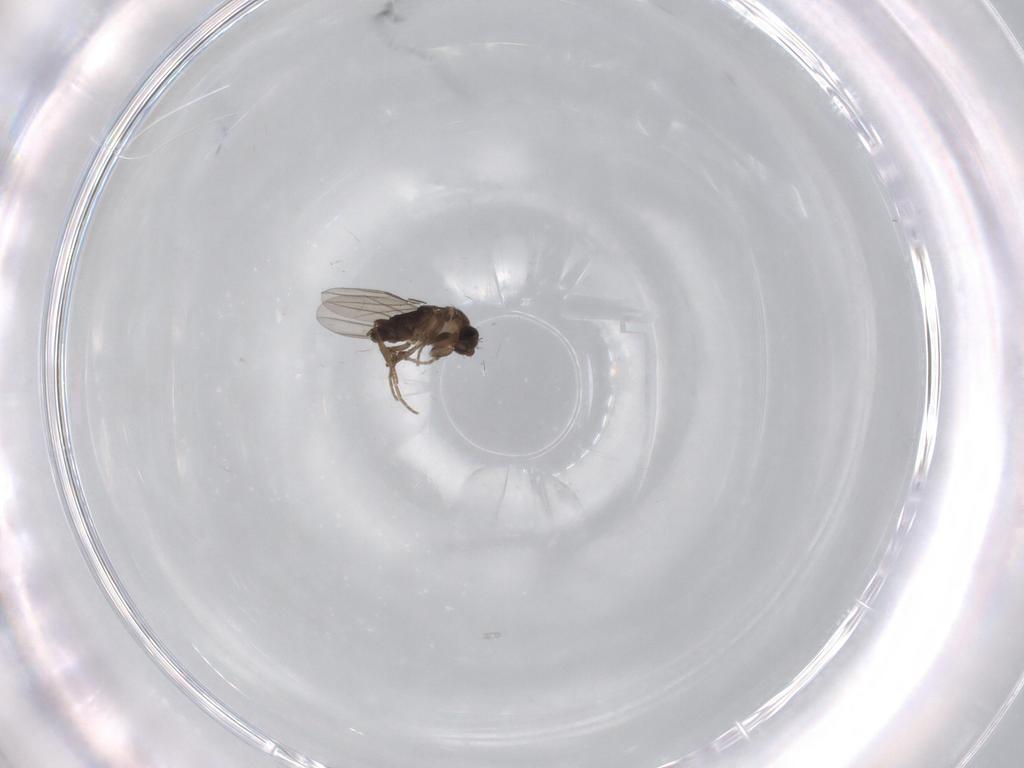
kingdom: Animalia
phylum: Arthropoda
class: Insecta
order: Diptera
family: Phoridae
